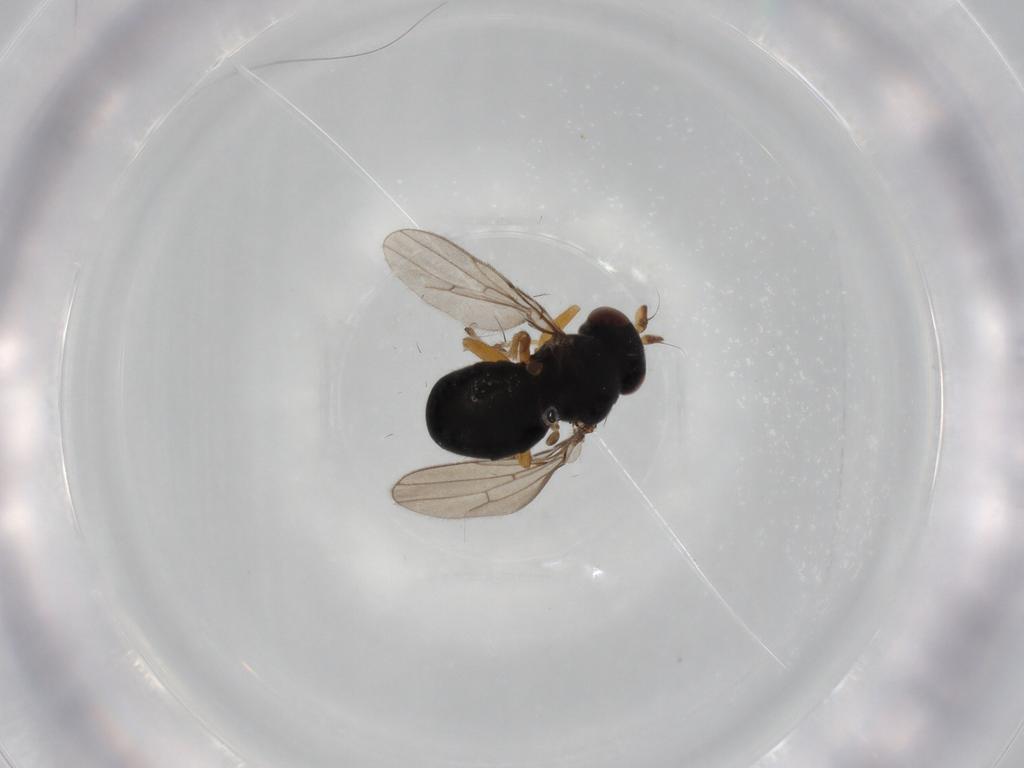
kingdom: Animalia
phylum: Arthropoda
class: Insecta
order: Diptera
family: Ephydridae
